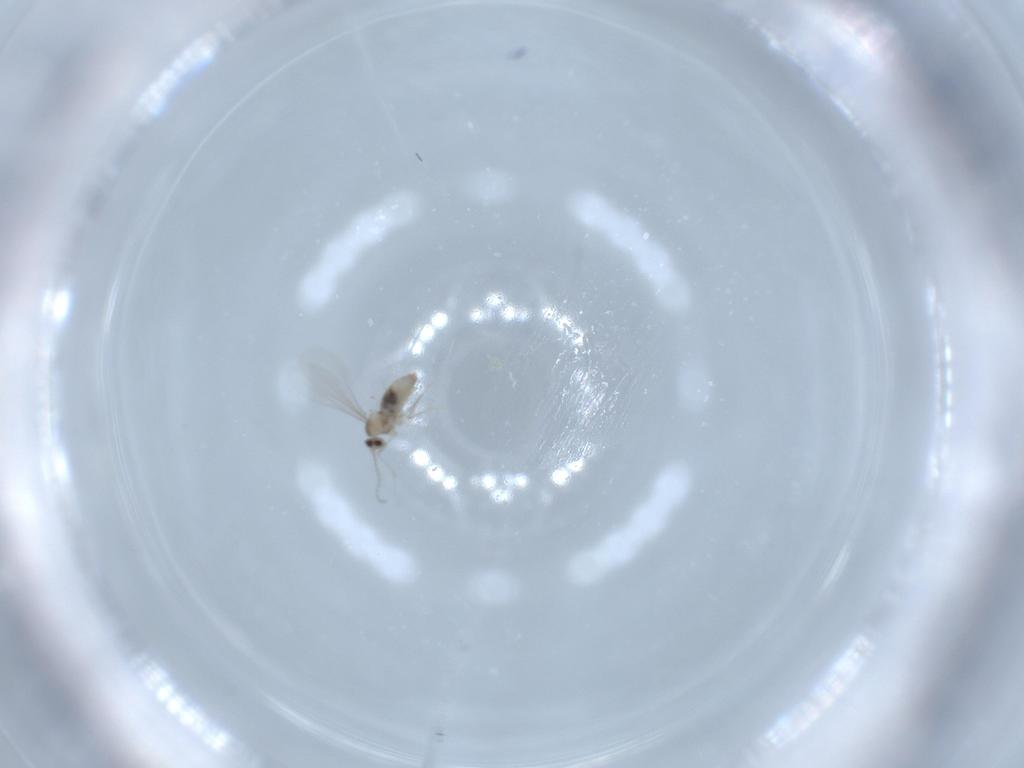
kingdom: Animalia
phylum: Arthropoda
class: Insecta
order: Diptera
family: Cecidomyiidae
